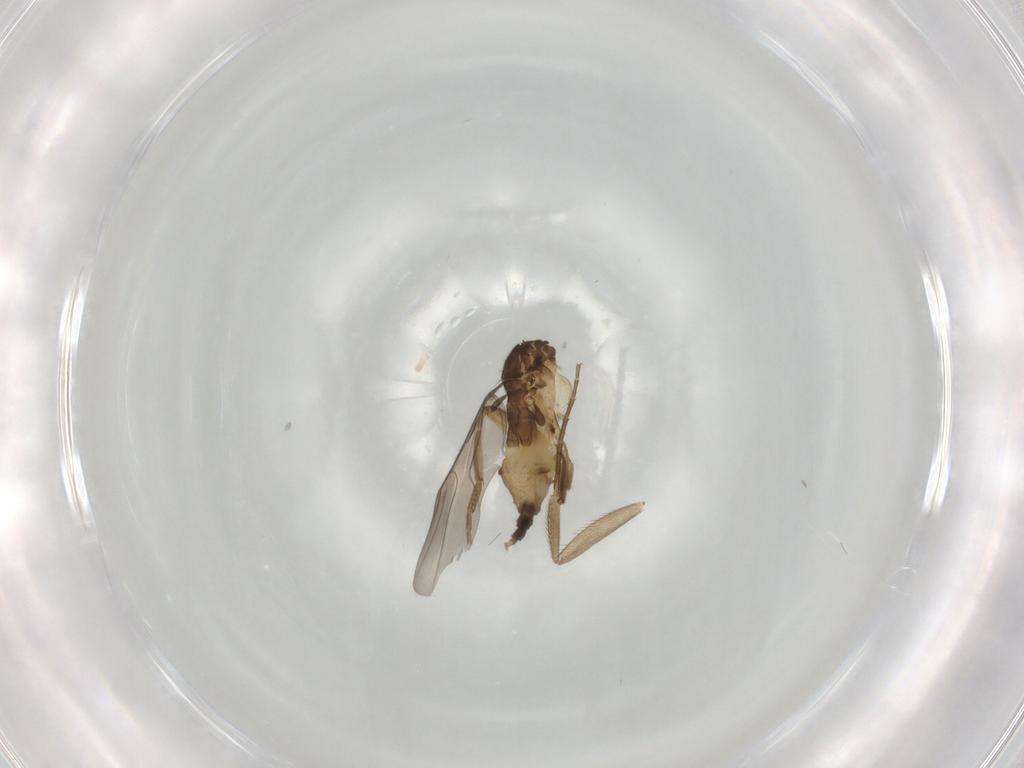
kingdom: Animalia
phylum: Arthropoda
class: Insecta
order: Diptera
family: Phoridae
